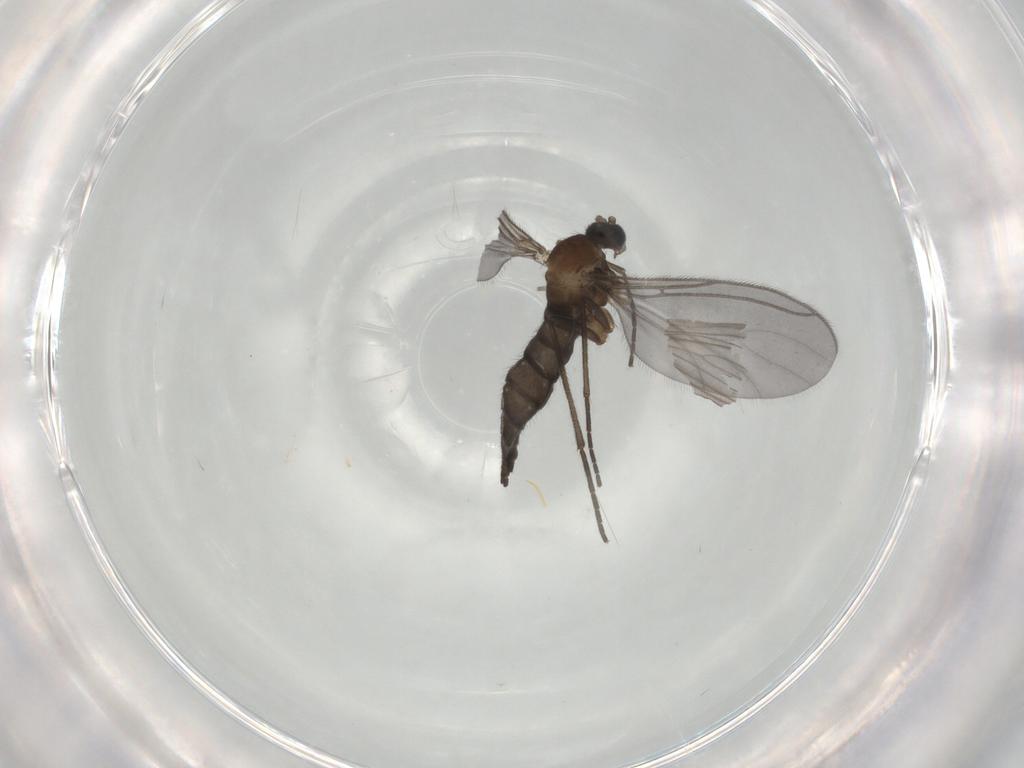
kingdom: Animalia
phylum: Arthropoda
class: Insecta
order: Diptera
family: Sciaridae
